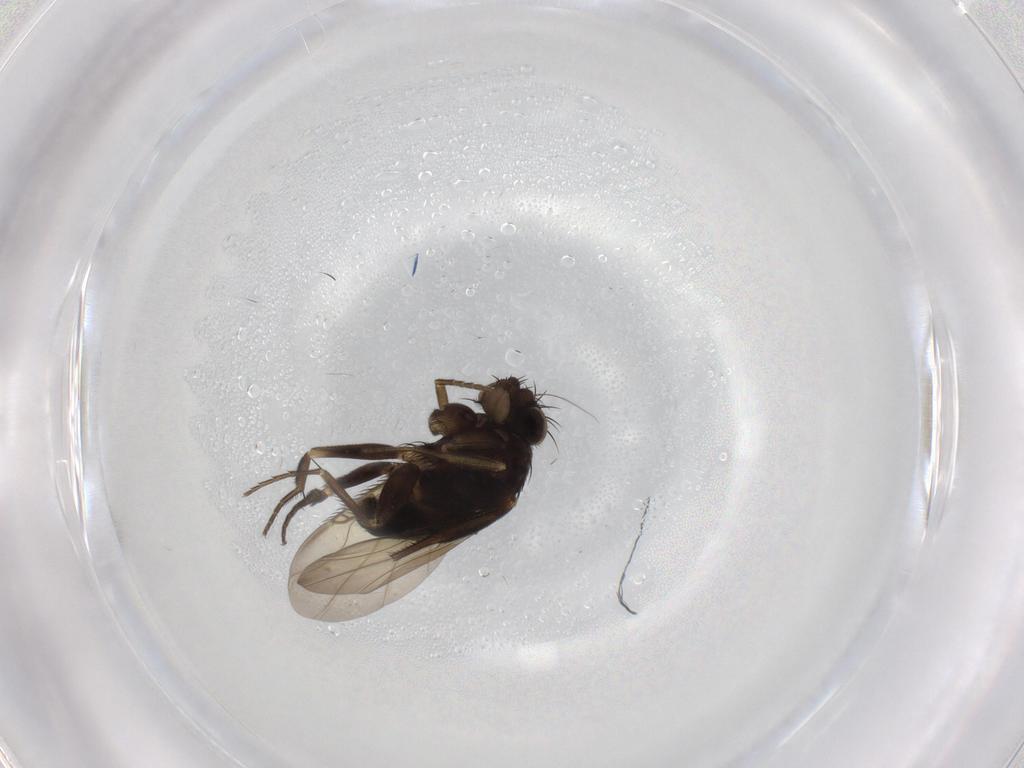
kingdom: Animalia
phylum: Arthropoda
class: Insecta
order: Diptera
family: Phoridae
